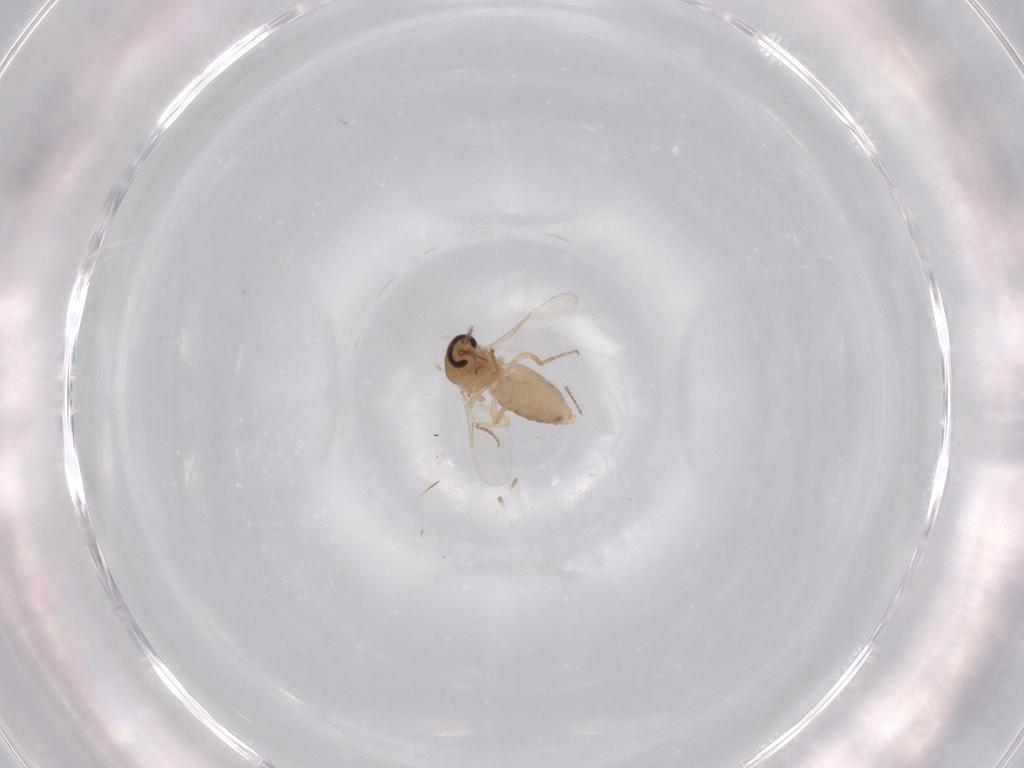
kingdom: Animalia
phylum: Arthropoda
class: Insecta
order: Diptera
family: Ceratopogonidae
